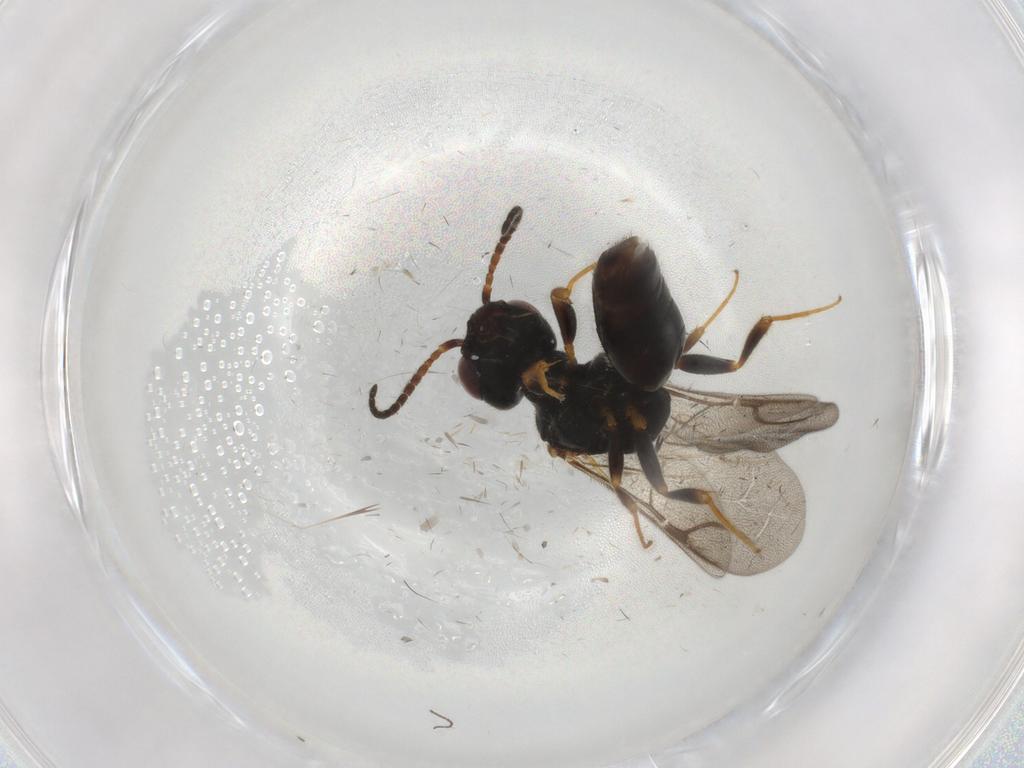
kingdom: Animalia
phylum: Arthropoda
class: Insecta
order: Hymenoptera
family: Bethylidae
